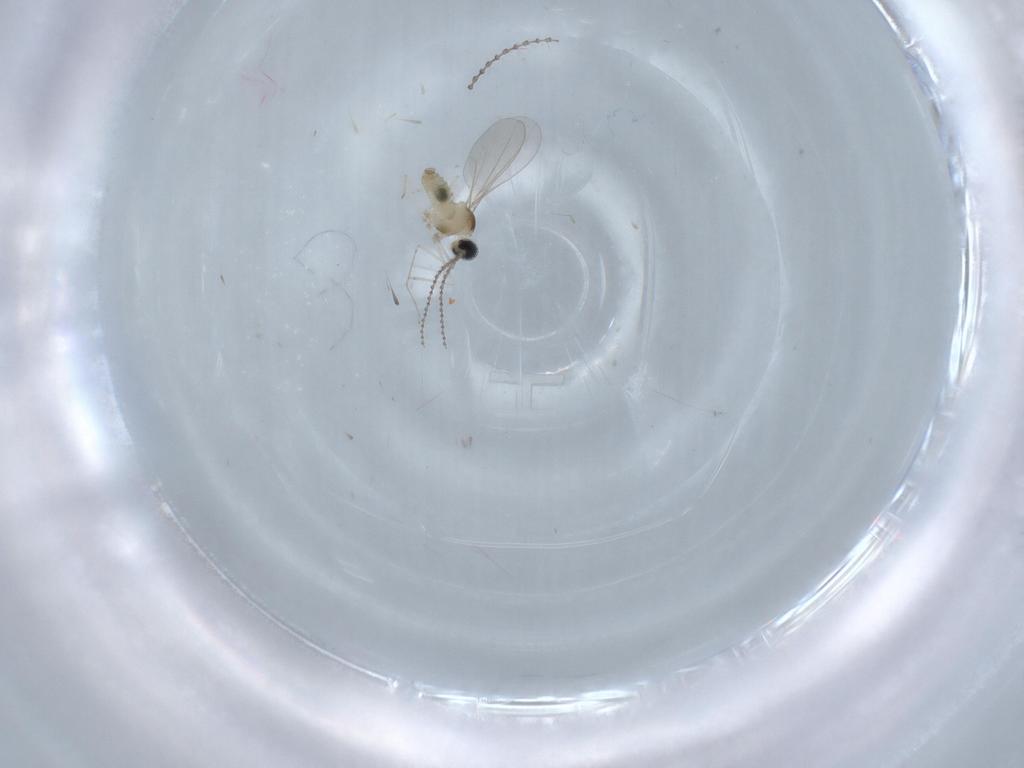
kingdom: Animalia
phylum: Arthropoda
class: Insecta
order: Diptera
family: Cecidomyiidae
